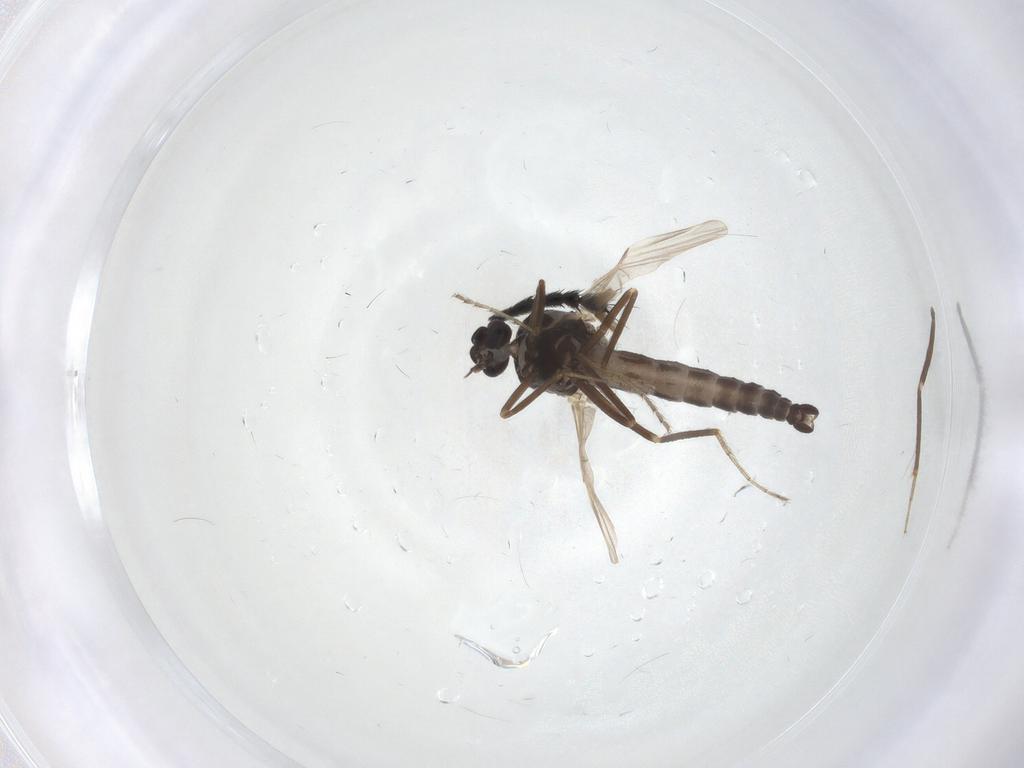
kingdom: Animalia
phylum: Arthropoda
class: Insecta
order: Diptera
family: Ceratopogonidae
